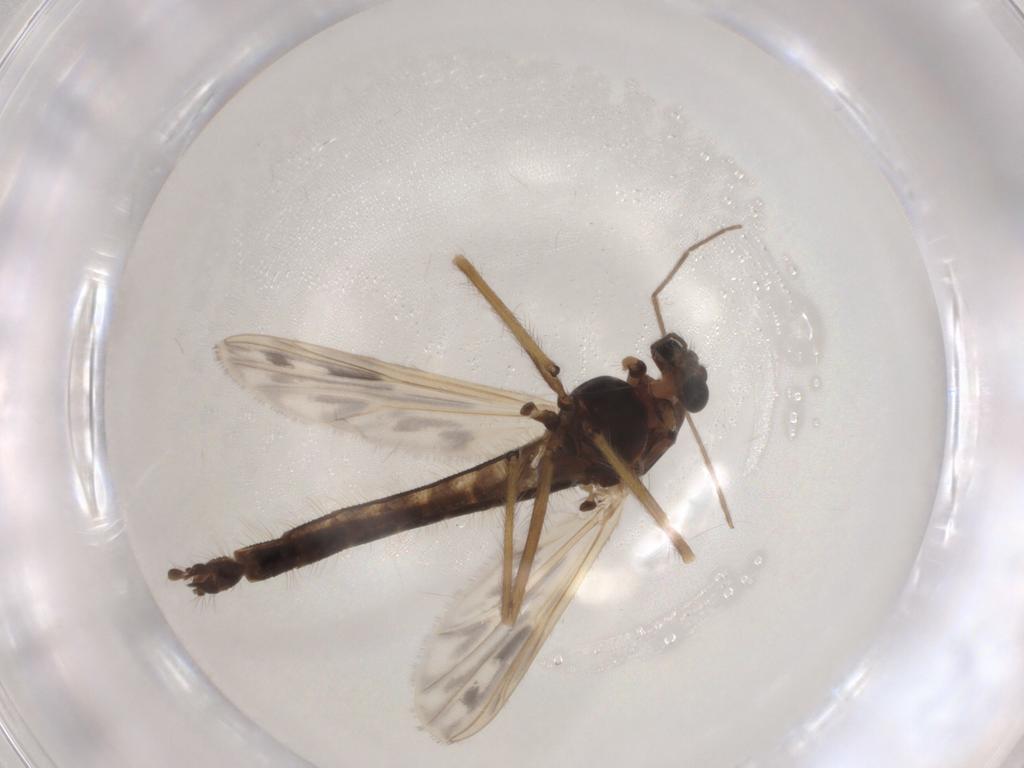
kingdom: Animalia
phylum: Arthropoda
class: Insecta
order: Diptera
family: Chironomidae
